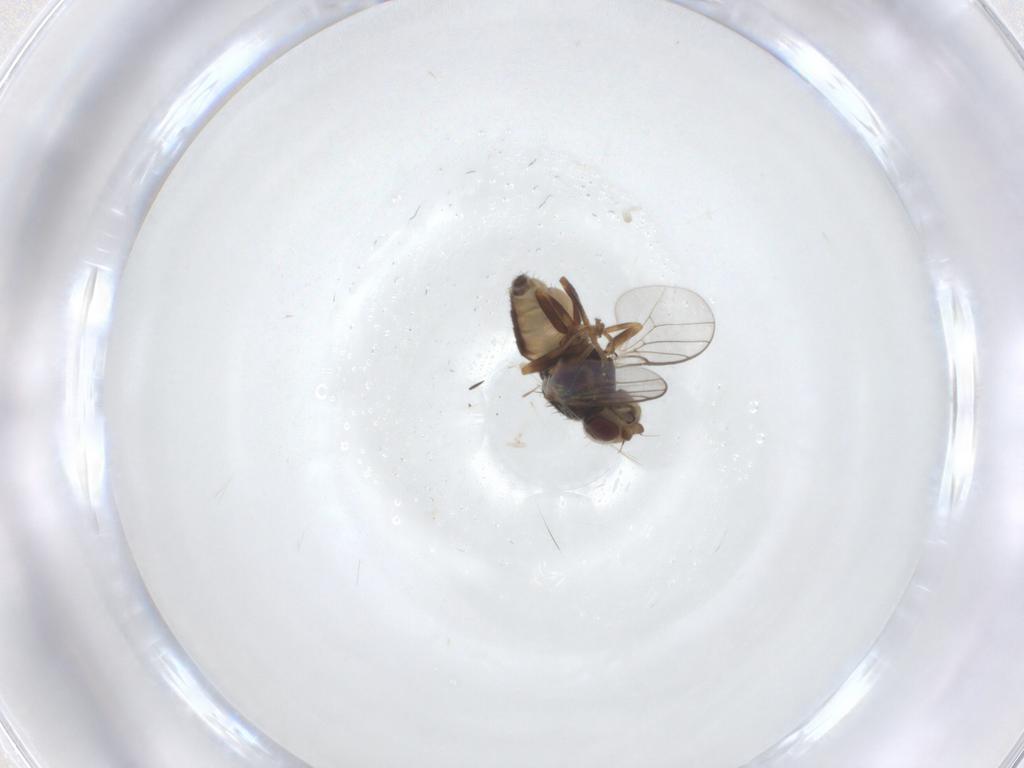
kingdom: Animalia
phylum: Arthropoda
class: Insecta
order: Diptera
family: Chloropidae
